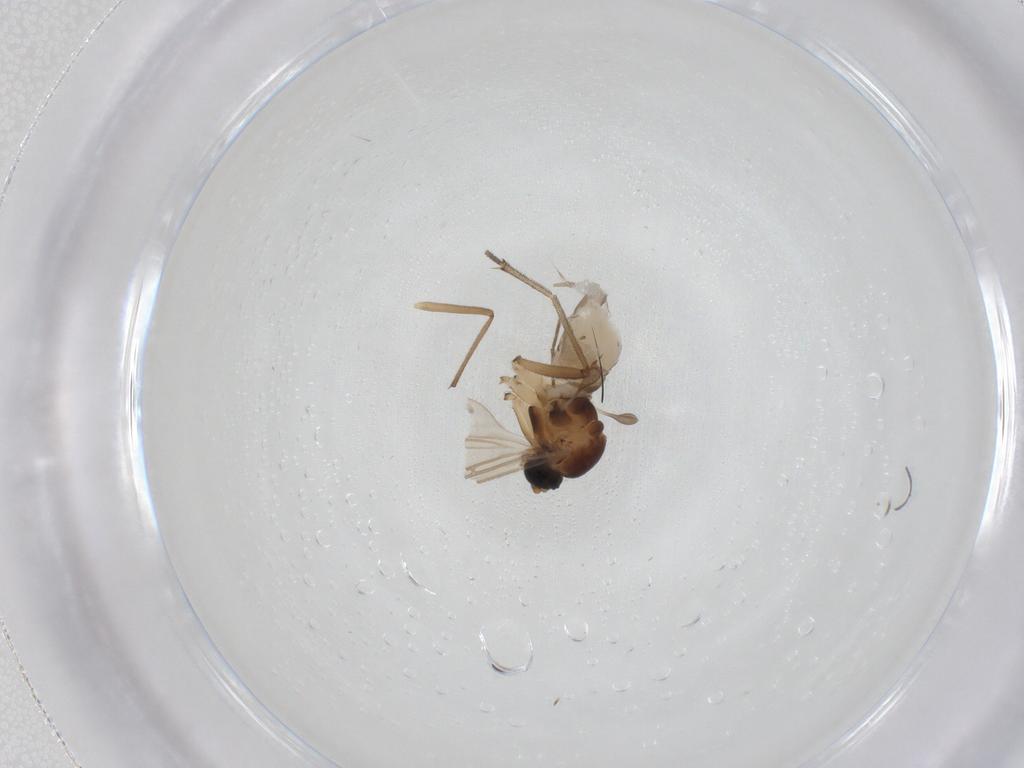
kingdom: Animalia
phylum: Arthropoda
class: Insecta
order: Diptera
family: Sciaridae
